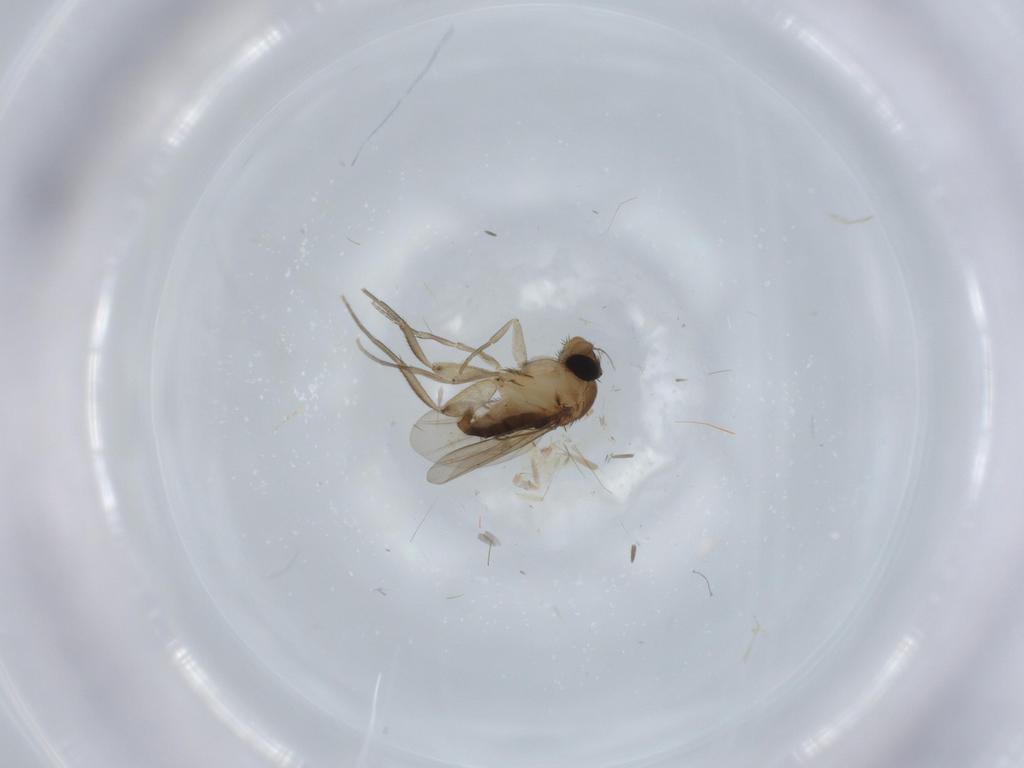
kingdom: Animalia
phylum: Arthropoda
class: Insecta
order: Diptera
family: Phoridae
